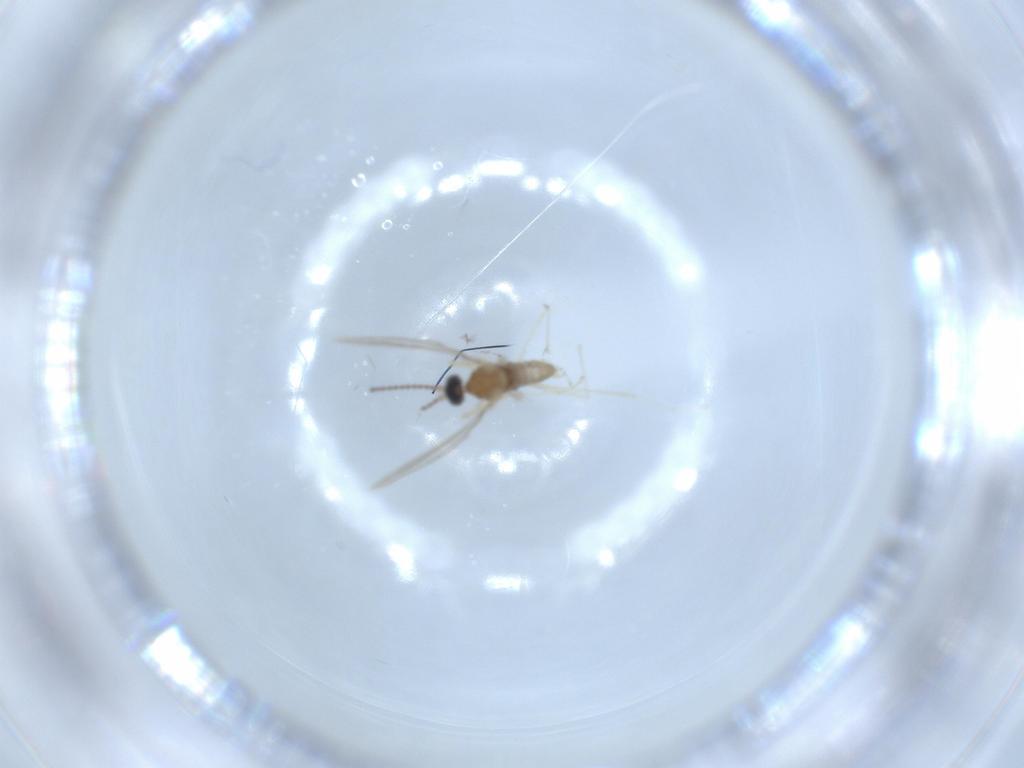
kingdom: Animalia
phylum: Arthropoda
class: Insecta
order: Diptera
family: Cecidomyiidae
